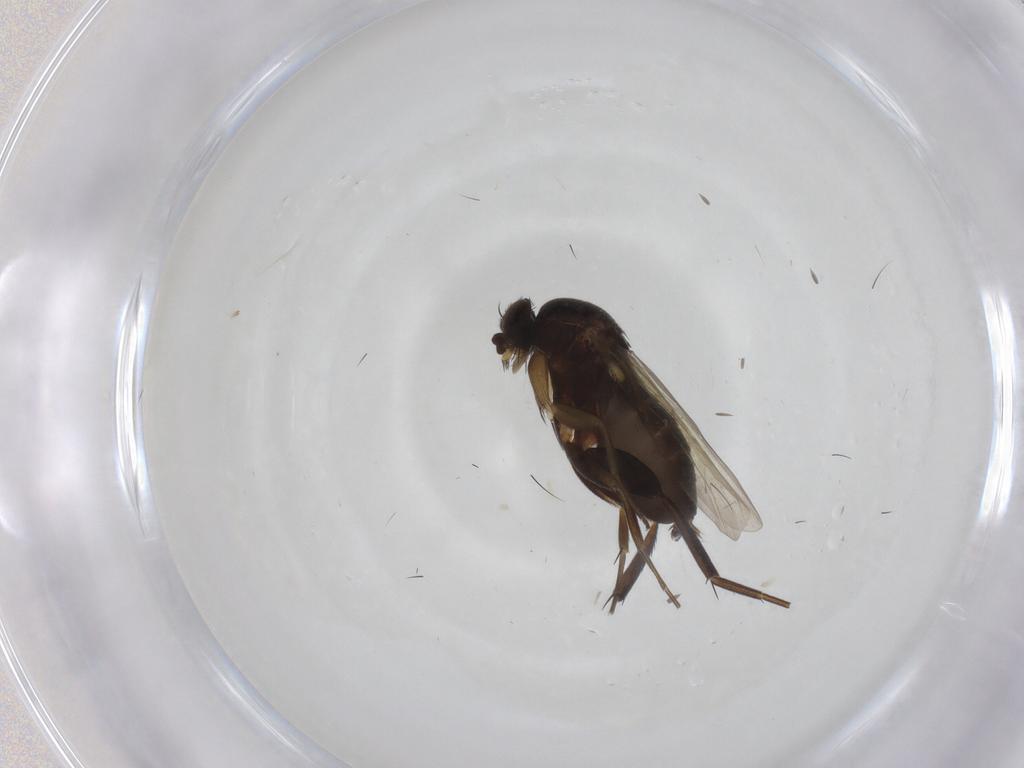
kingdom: Animalia
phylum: Arthropoda
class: Insecta
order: Diptera
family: Phoridae
